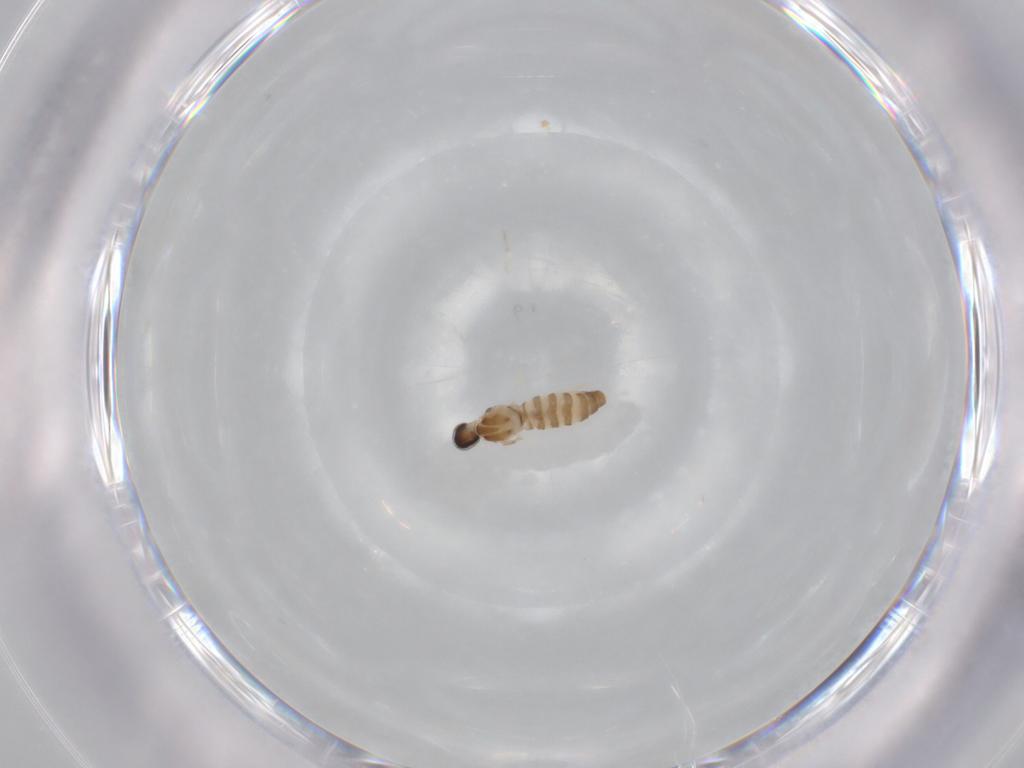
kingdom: Animalia
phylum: Arthropoda
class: Insecta
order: Diptera
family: Cecidomyiidae
